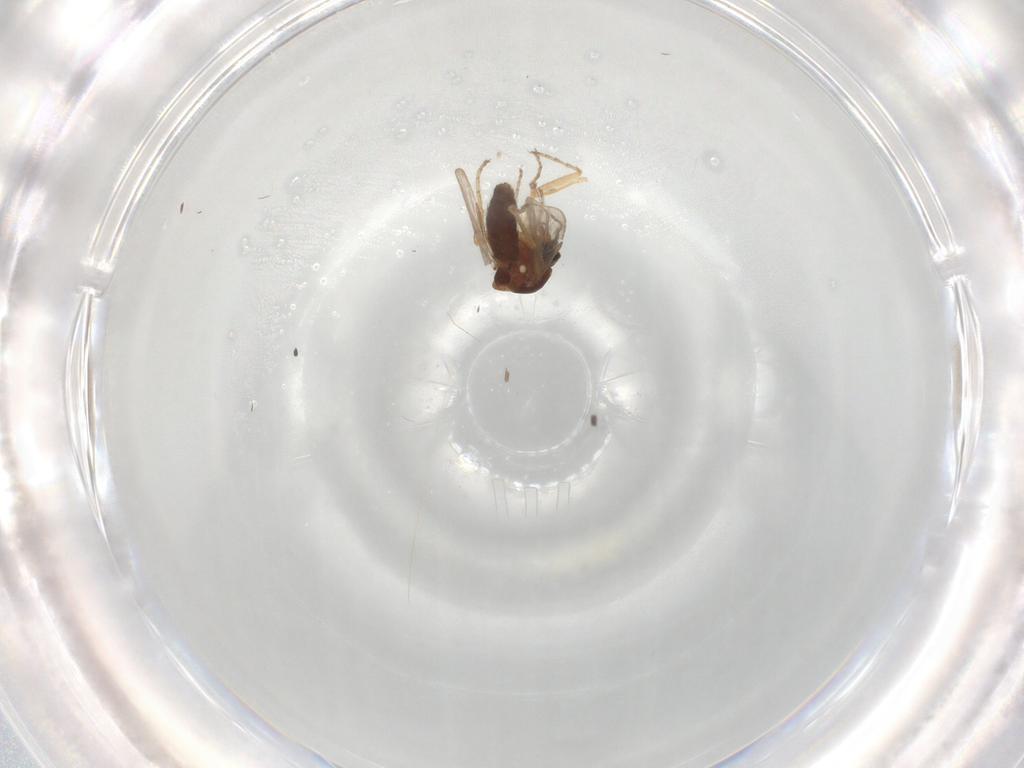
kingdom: Animalia
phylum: Arthropoda
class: Insecta
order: Diptera
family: Ceratopogonidae
